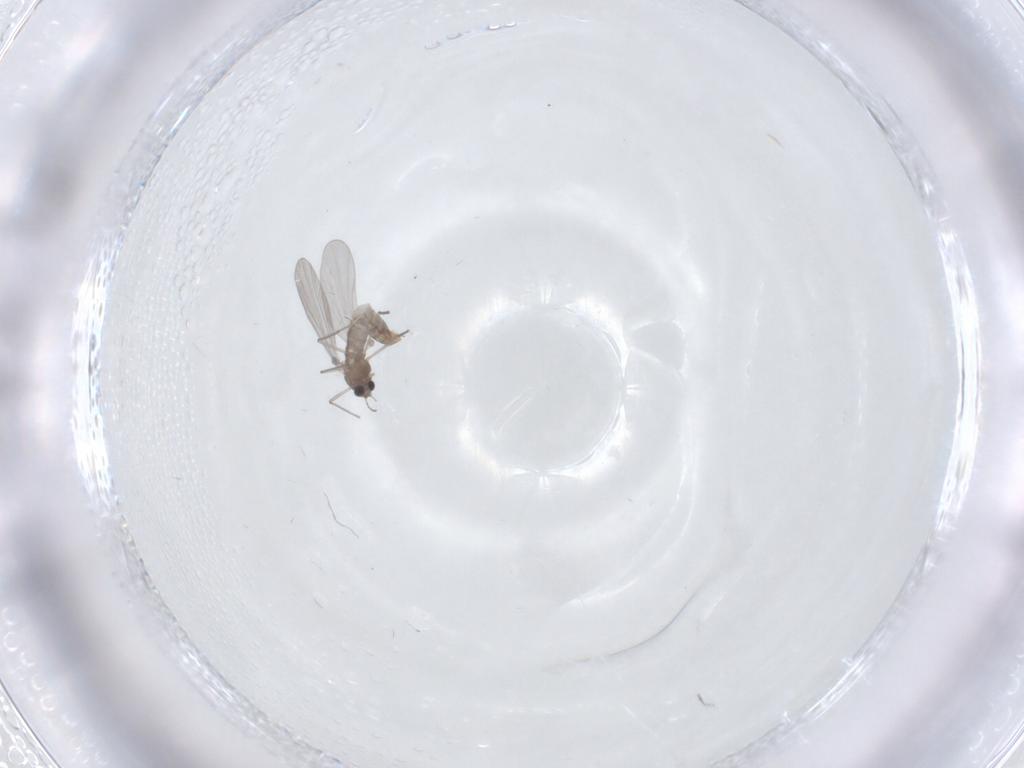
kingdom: Animalia
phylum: Arthropoda
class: Insecta
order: Diptera
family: Chironomidae
